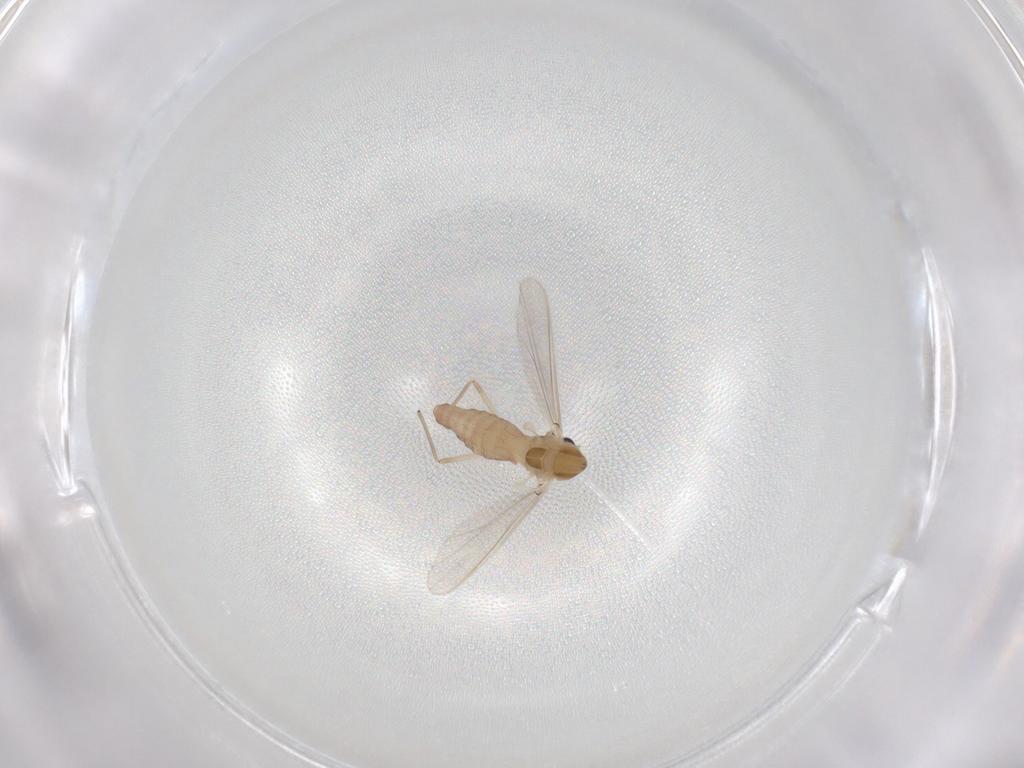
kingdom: Animalia
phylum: Arthropoda
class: Insecta
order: Diptera
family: Chironomidae
